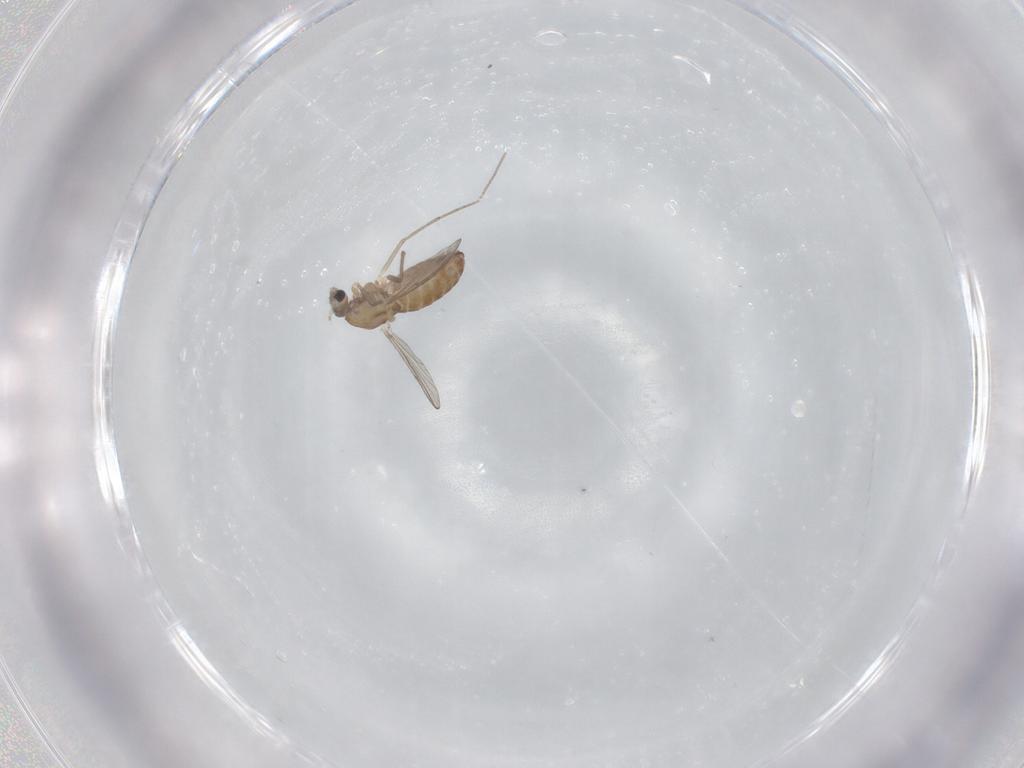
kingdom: Animalia
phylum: Arthropoda
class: Insecta
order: Diptera
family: Chironomidae
